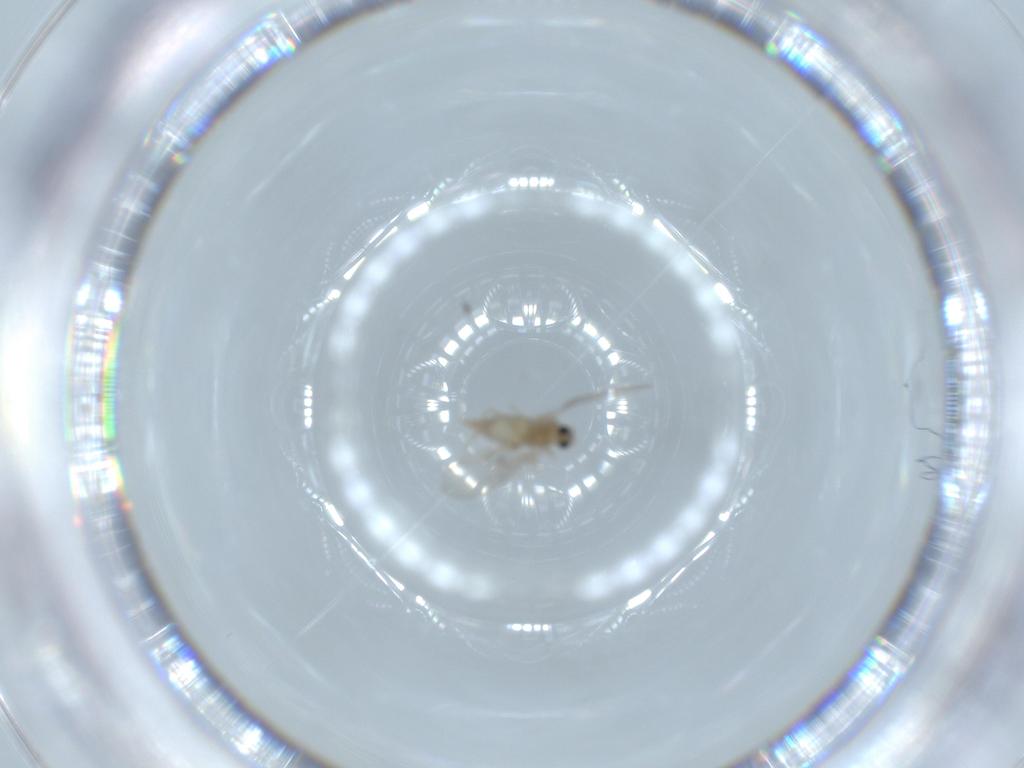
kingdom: Animalia
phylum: Arthropoda
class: Insecta
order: Diptera
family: Cecidomyiidae
